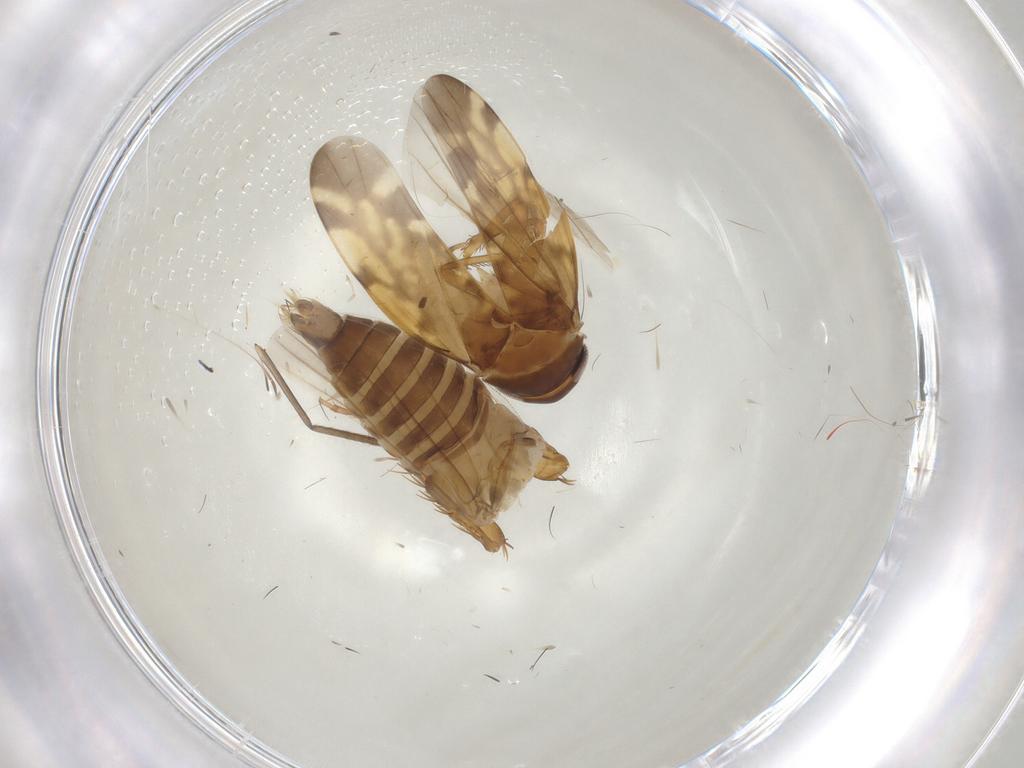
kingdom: Animalia
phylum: Arthropoda
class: Insecta
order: Hemiptera
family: Cicadellidae
